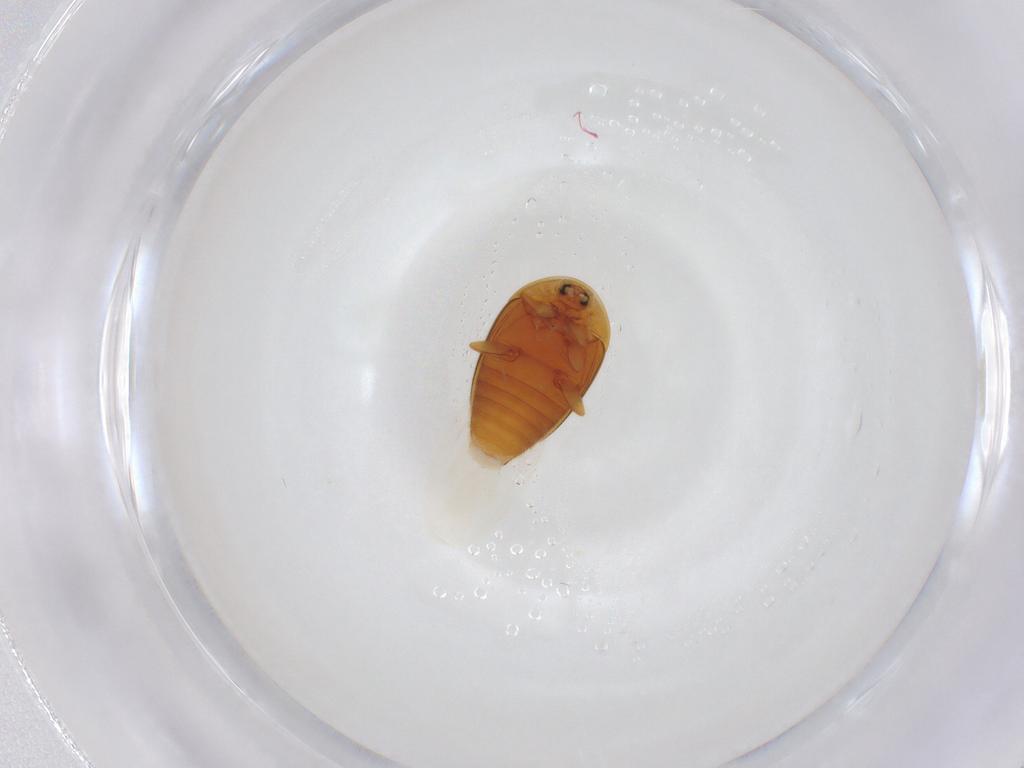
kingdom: Animalia
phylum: Arthropoda
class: Insecta
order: Coleoptera
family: Corylophidae
